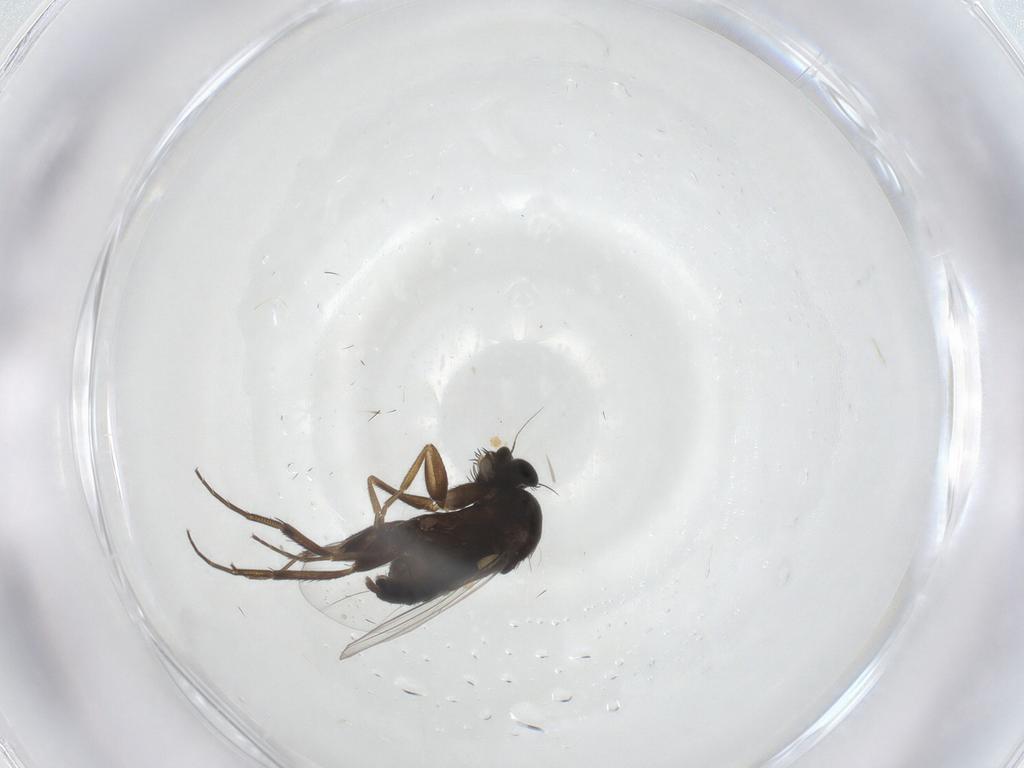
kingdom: Animalia
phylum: Arthropoda
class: Insecta
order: Diptera
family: Phoridae
